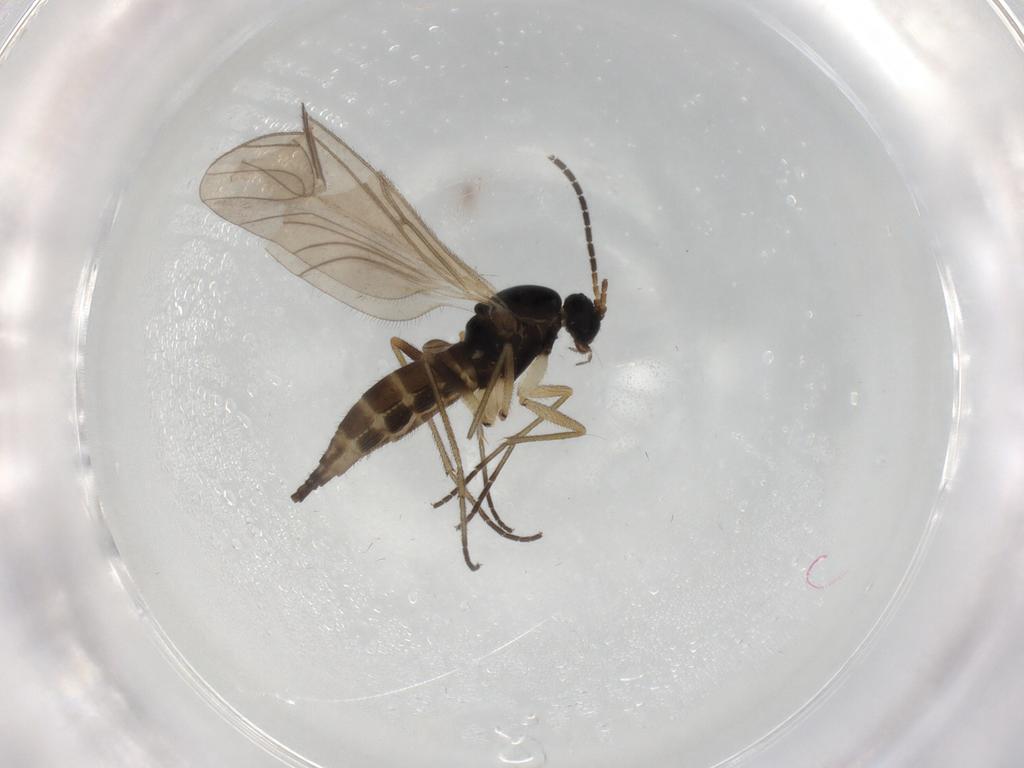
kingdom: Animalia
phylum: Arthropoda
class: Insecta
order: Diptera
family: Sciaridae
